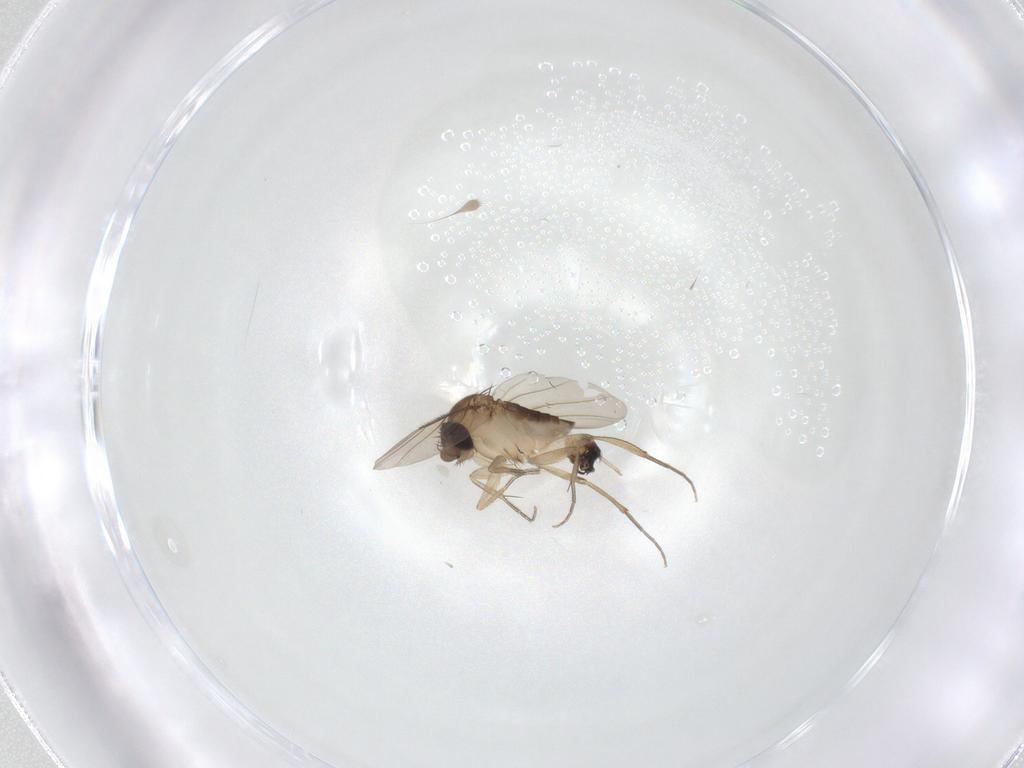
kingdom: Animalia
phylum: Arthropoda
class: Insecta
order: Diptera
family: Phoridae
